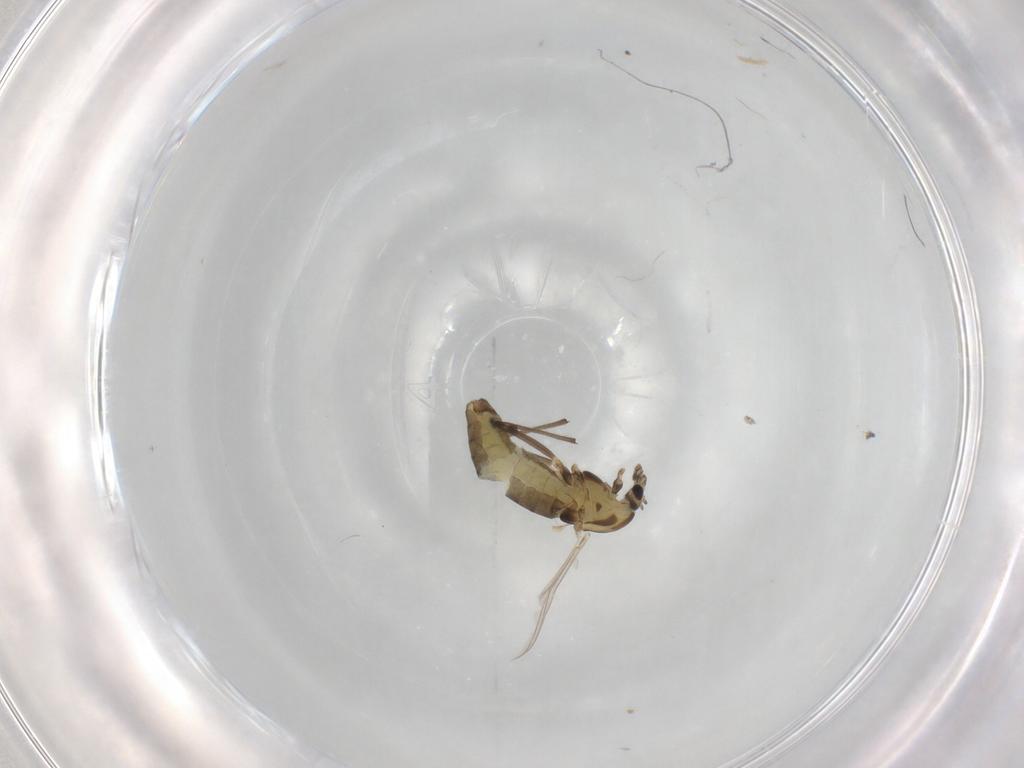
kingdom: Animalia
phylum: Arthropoda
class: Insecta
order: Diptera
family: Chironomidae
